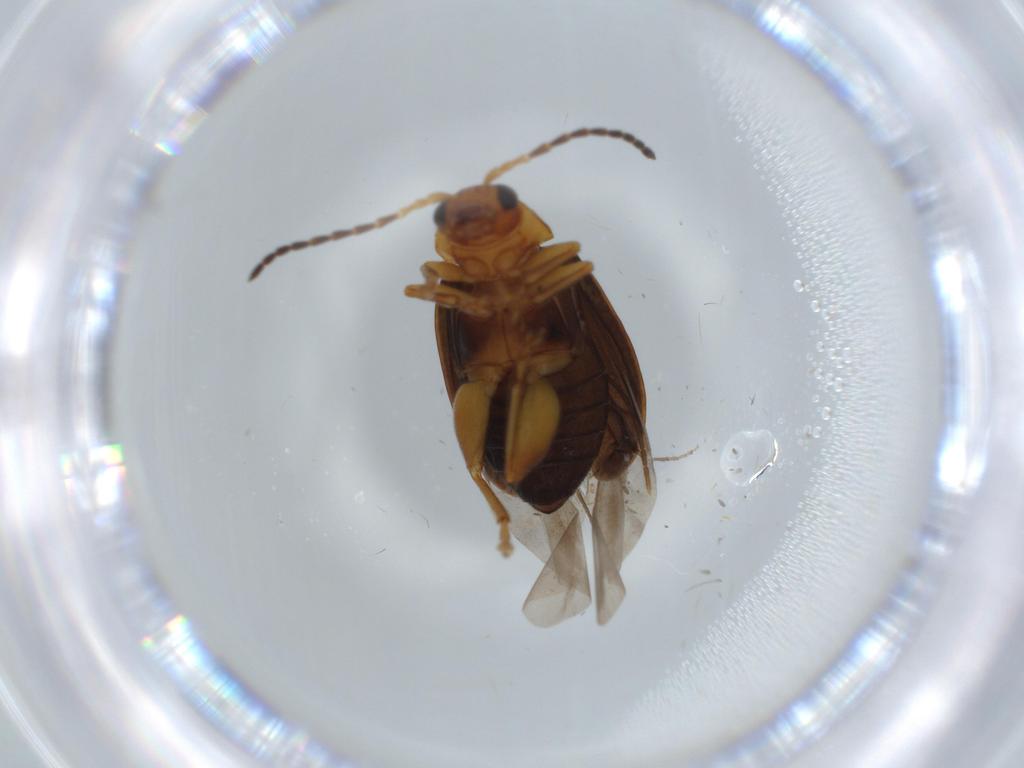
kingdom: Animalia
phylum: Arthropoda
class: Insecta
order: Coleoptera
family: Chrysomelidae
